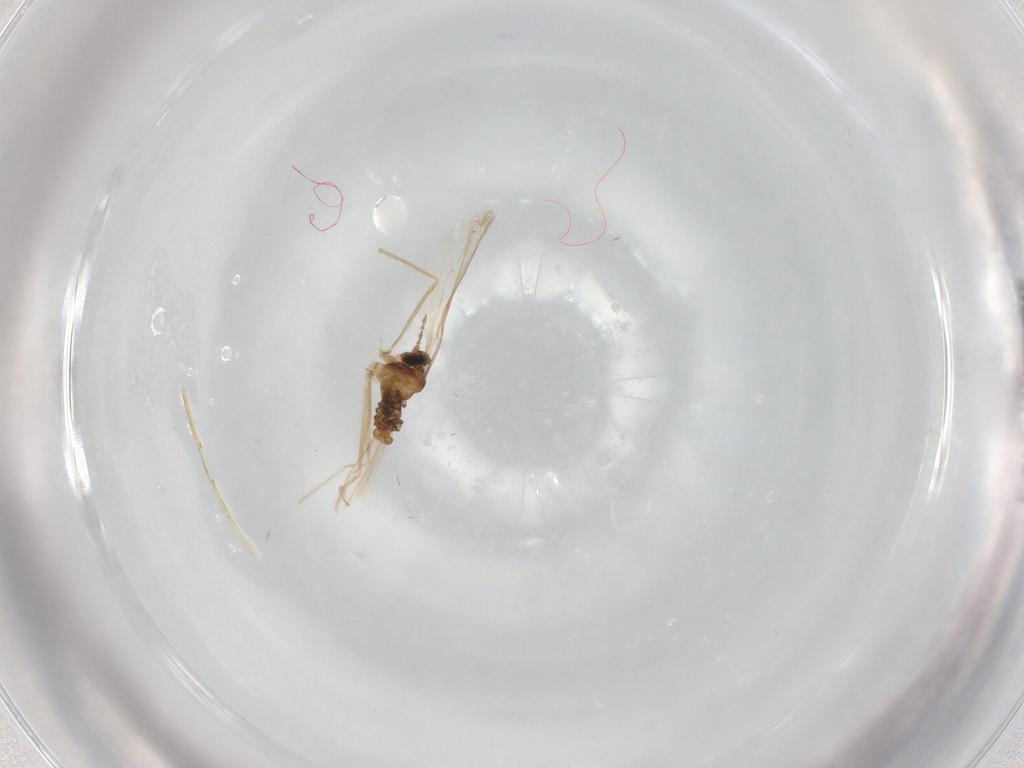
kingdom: Animalia
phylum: Arthropoda
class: Insecta
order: Diptera
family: Cecidomyiidae
